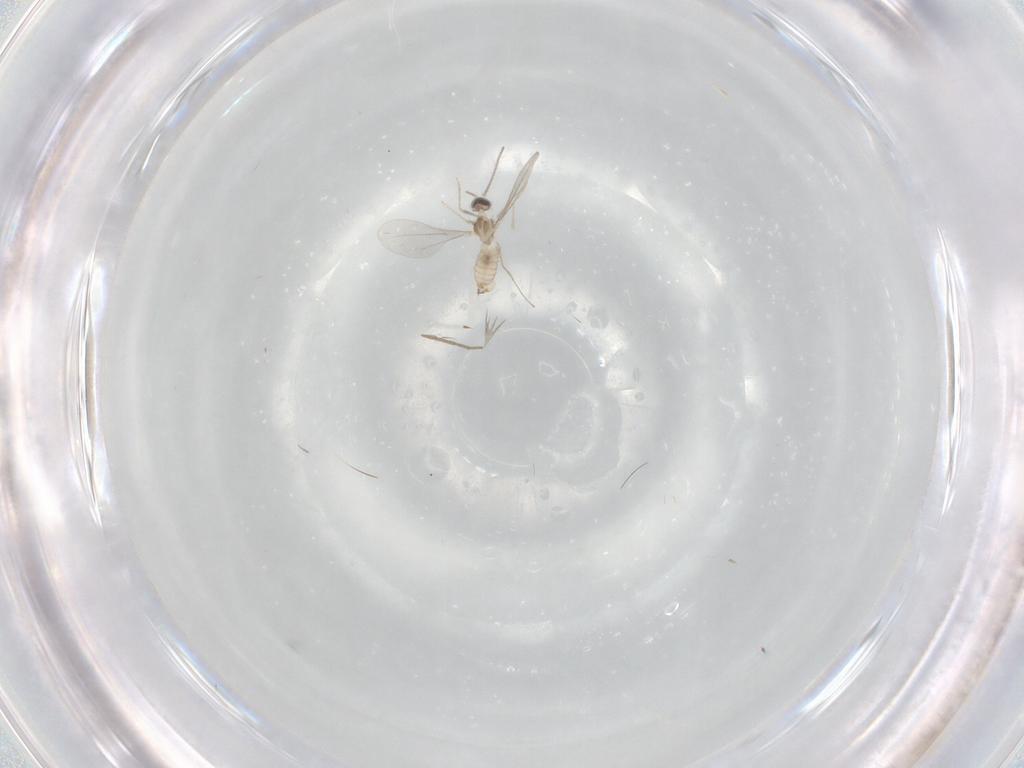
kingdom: Animalia
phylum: Arthropoda
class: Insecta
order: Diptera
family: Cecidomyiidae
